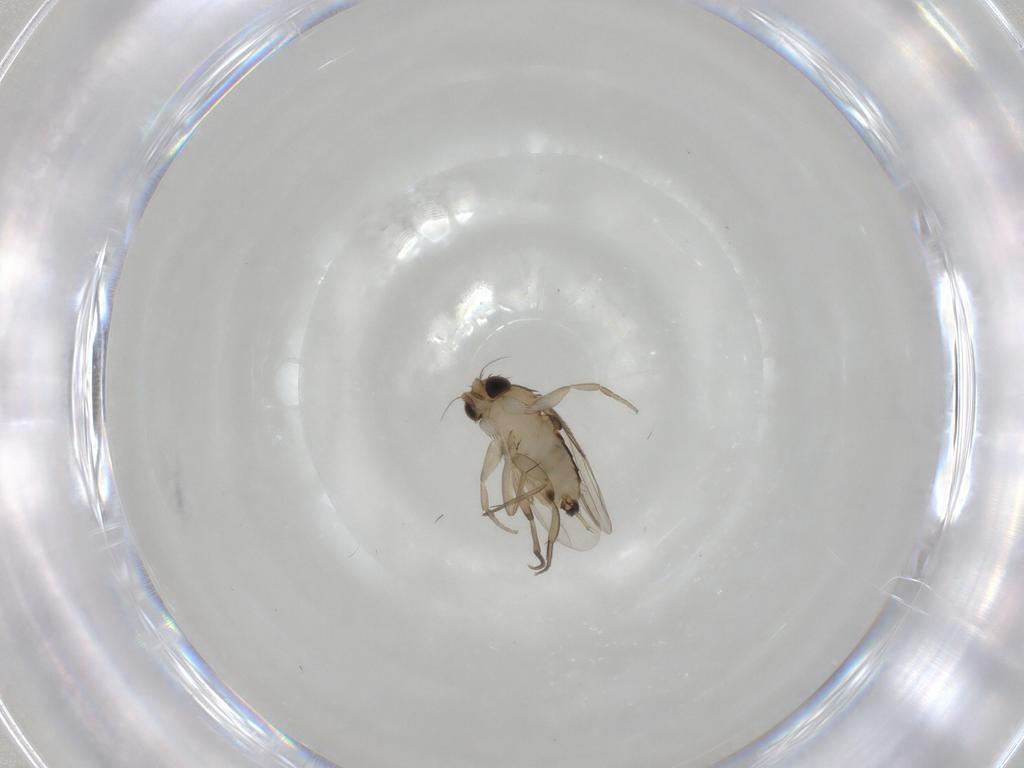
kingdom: Animalia
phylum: Arthropoda
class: Insecta
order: Diptera
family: Phoridae
